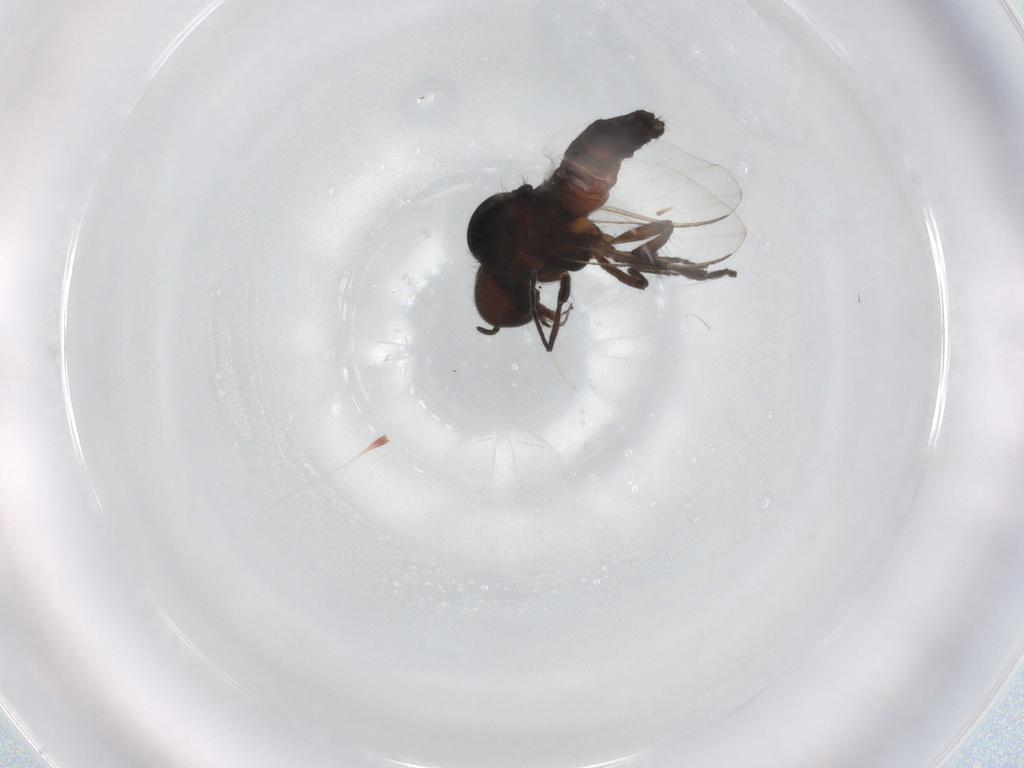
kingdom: Animalia
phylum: Arthropoda
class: Insecta
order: Diptera
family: Simuliidae
